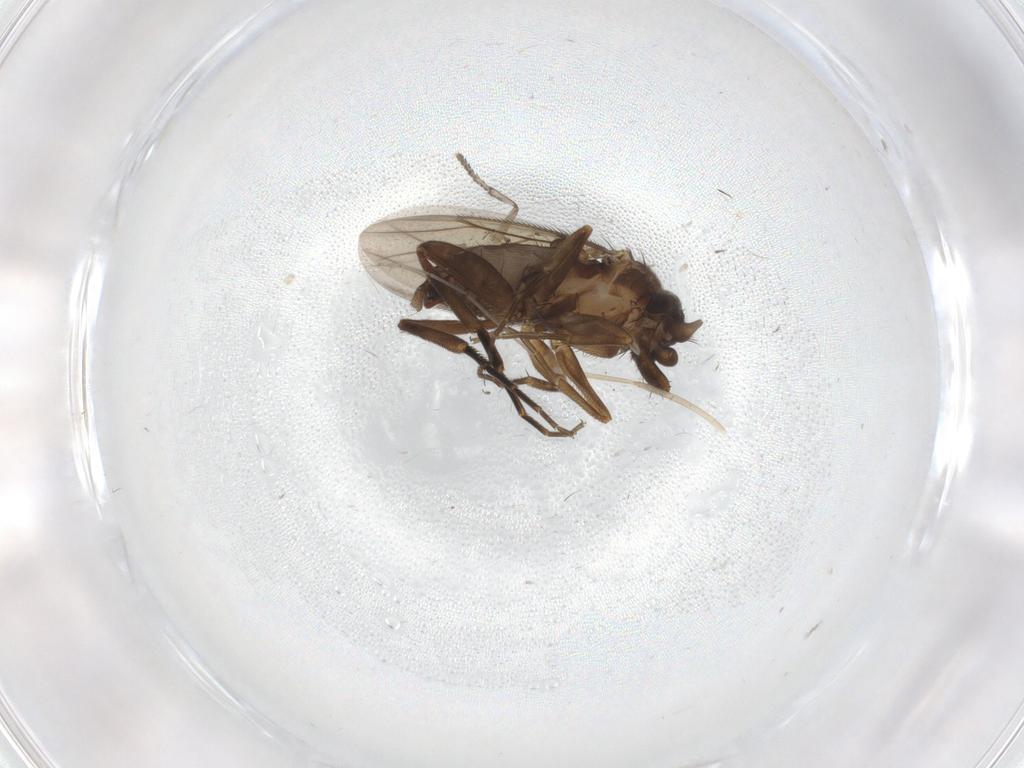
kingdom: Animalia
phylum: Arthropoda
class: Insecta
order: Diptera
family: Sciaridae
